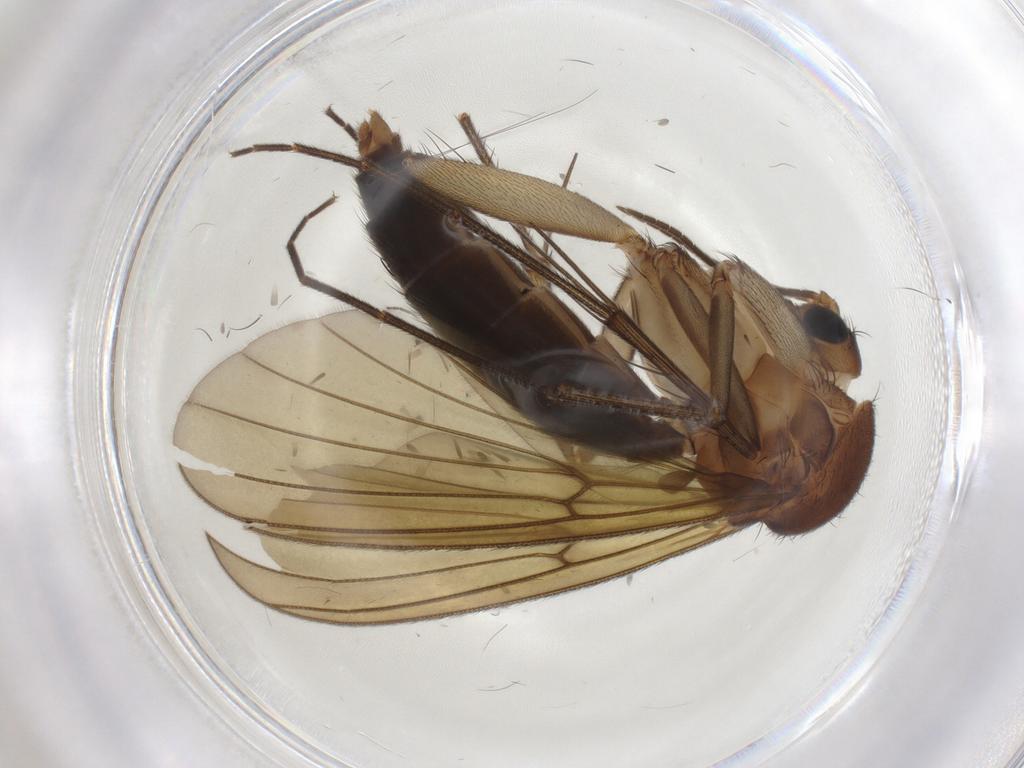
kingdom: Animalia
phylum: Arthropoda
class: Insecta
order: Diptera
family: Mycetophilidae
